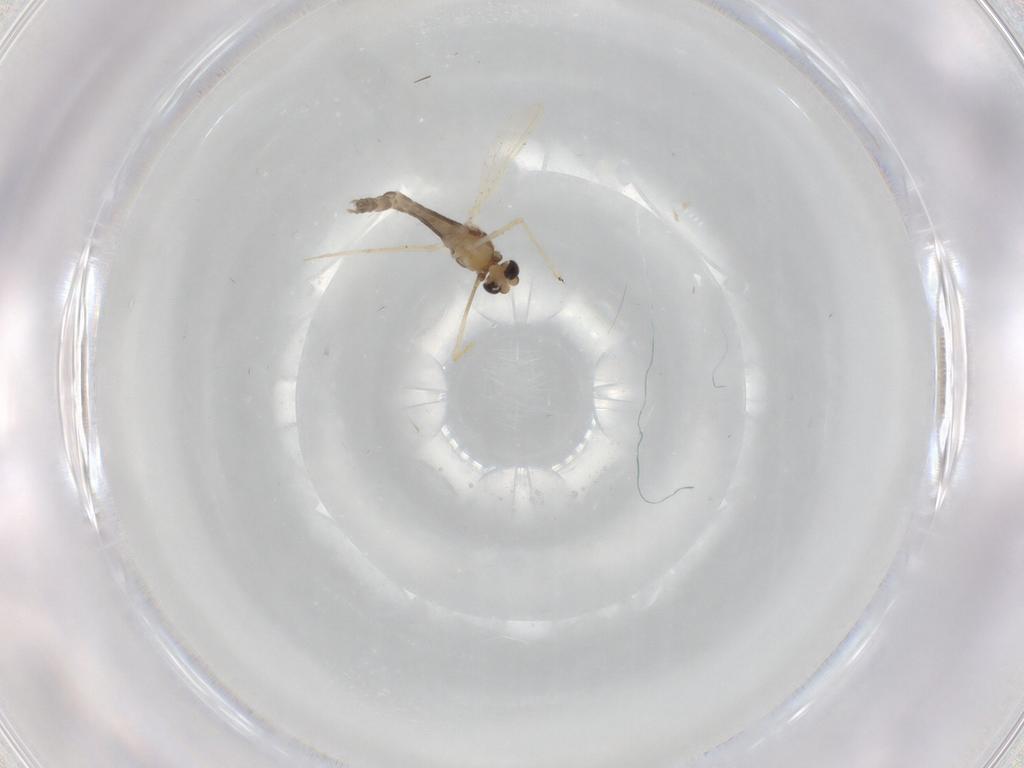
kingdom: Animalia
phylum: Arthropoda
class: Insecta
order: Diptera
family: Chironomidae
